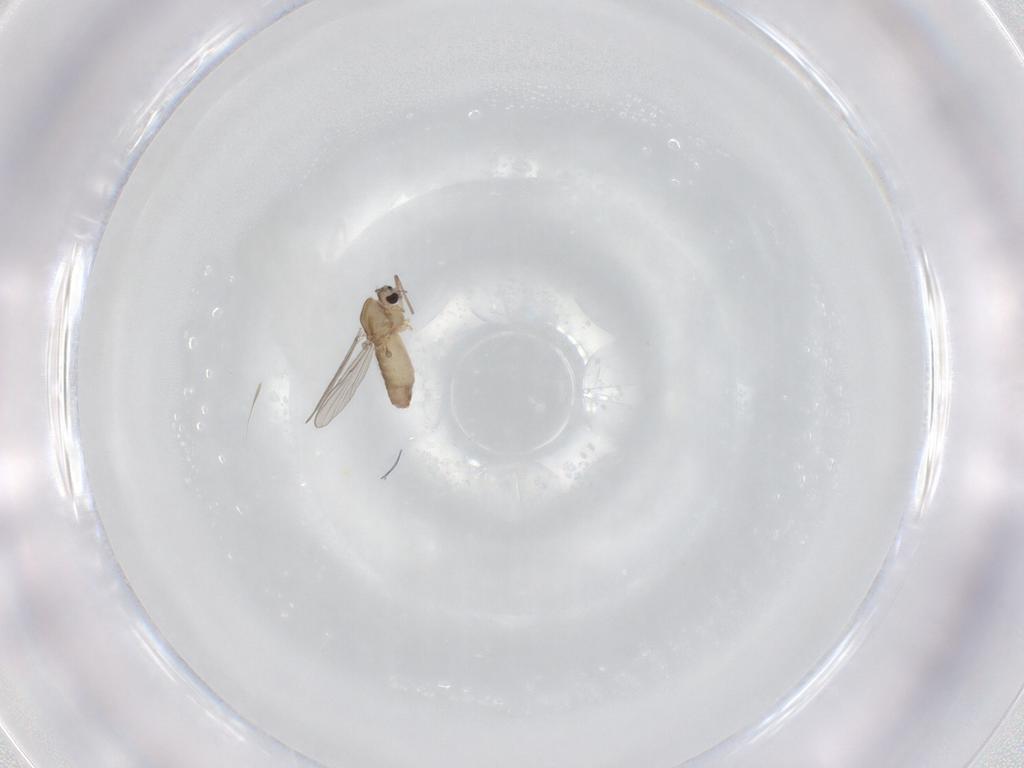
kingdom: Animalia
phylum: Arthropoda
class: Insecta
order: Diptera
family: Chironomidae
